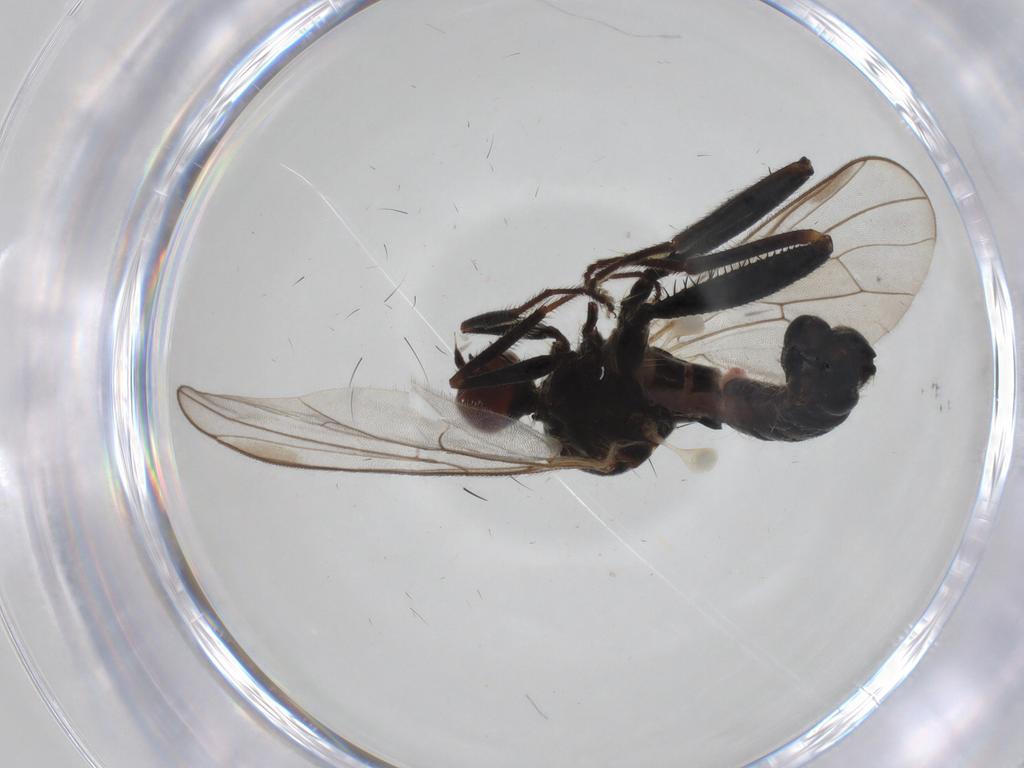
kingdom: Animalia
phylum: Arthropoda
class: Insecta
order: Diptera
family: Hybotidae
